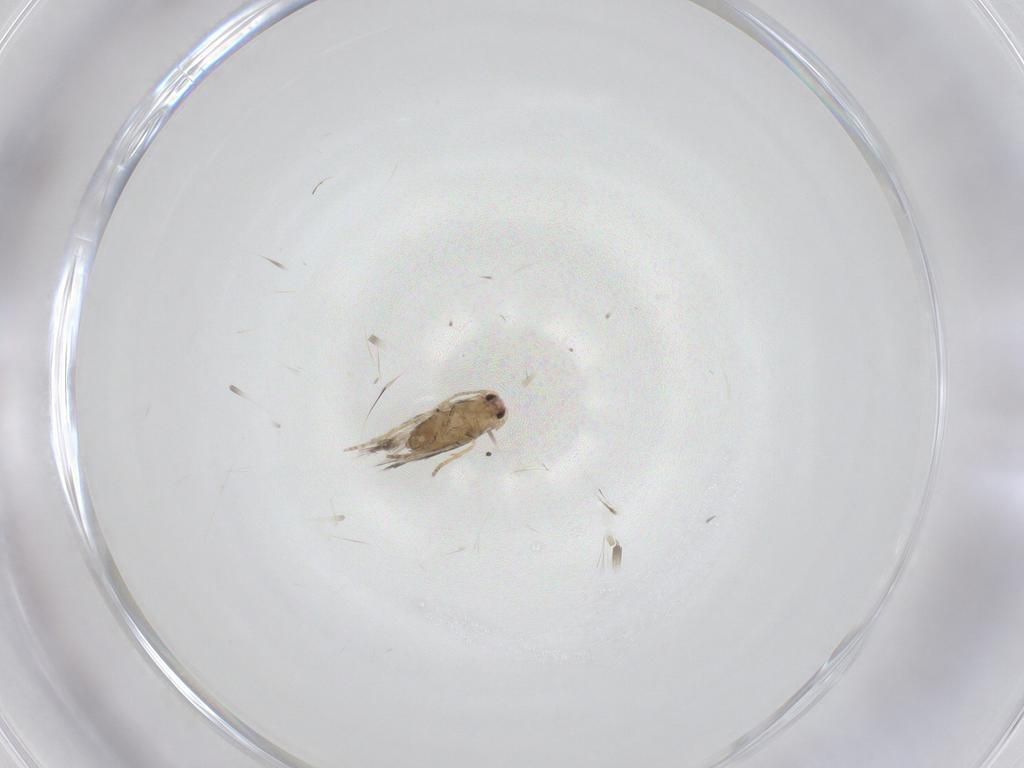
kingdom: Animalia
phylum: Arthropoda
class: Insecta
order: Lepidoptera
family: Nepticulidae
